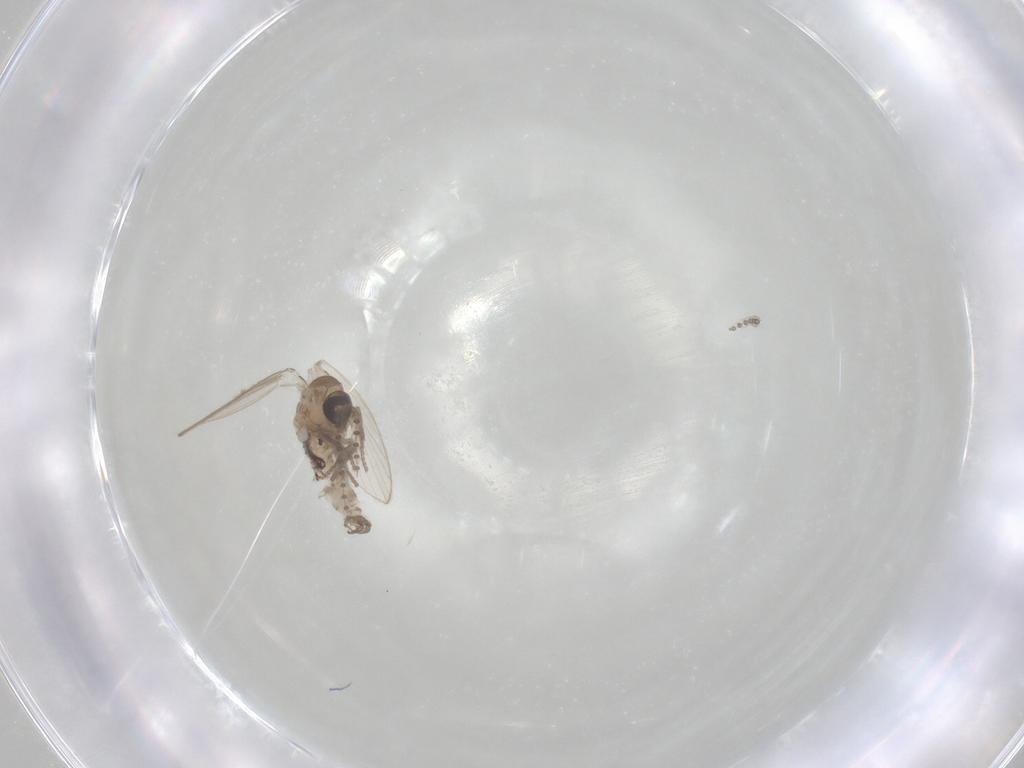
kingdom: Animalia
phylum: Arthropoda
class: Insecta
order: Diptera
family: Psychodidae
